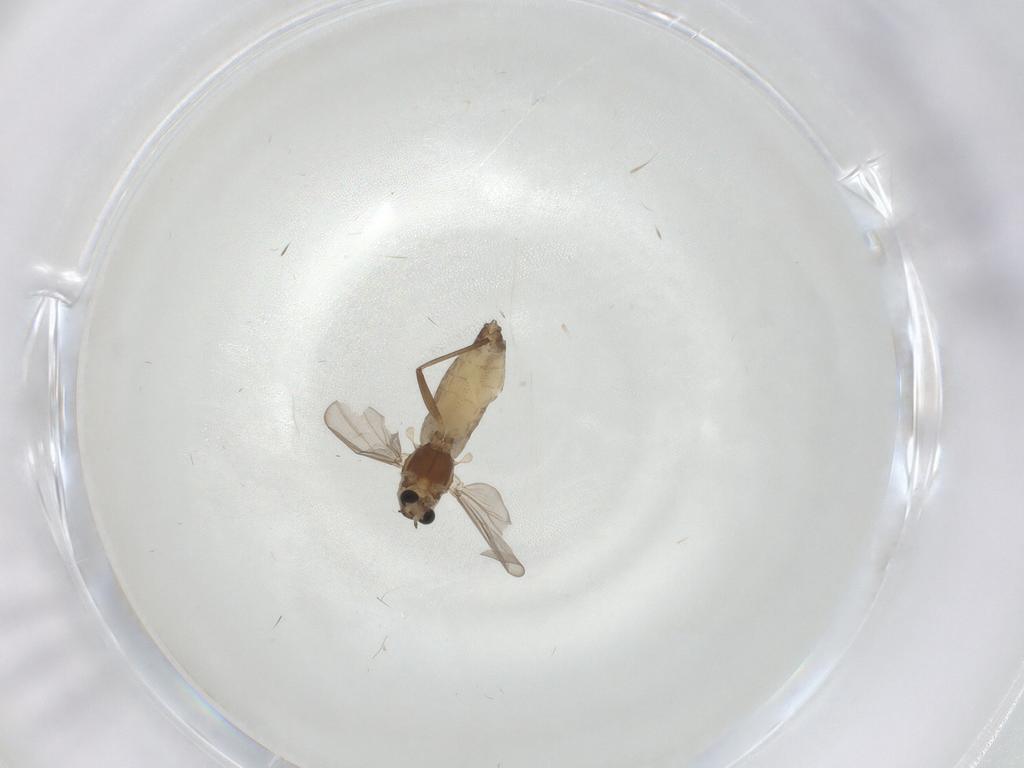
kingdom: Animalia
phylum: Arthropoda
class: Insecta
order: Diptera
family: Chironomidae
